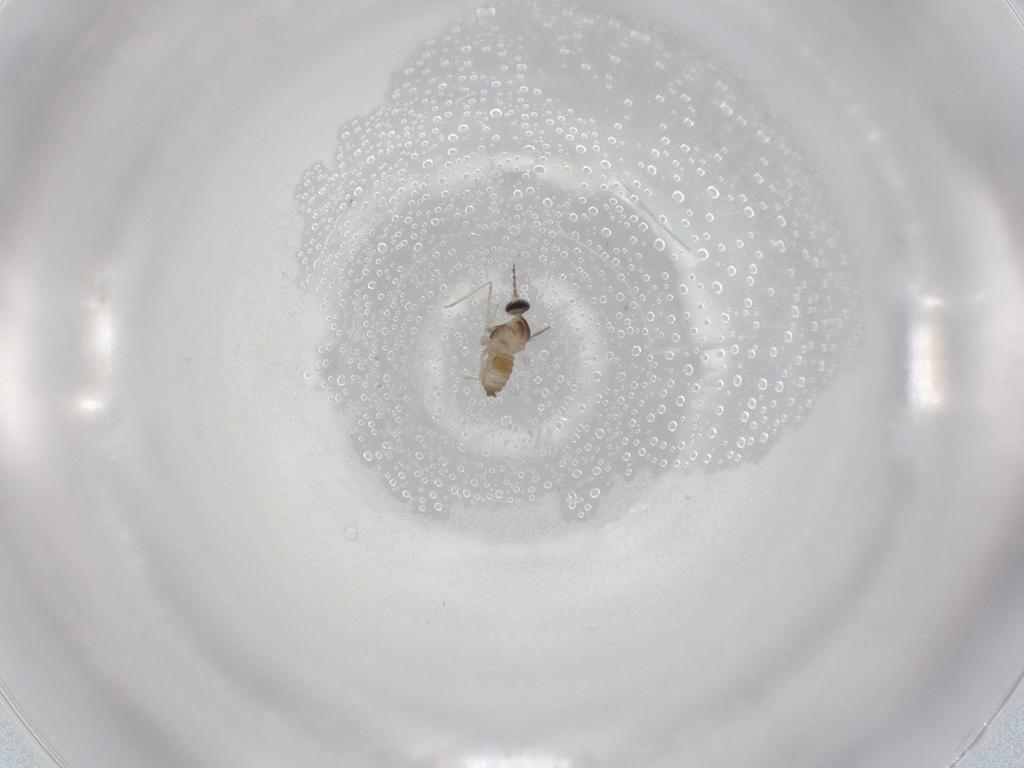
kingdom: Animalia
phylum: Arthropoda
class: Insecta
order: Diptera
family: Cecidomyiidae
